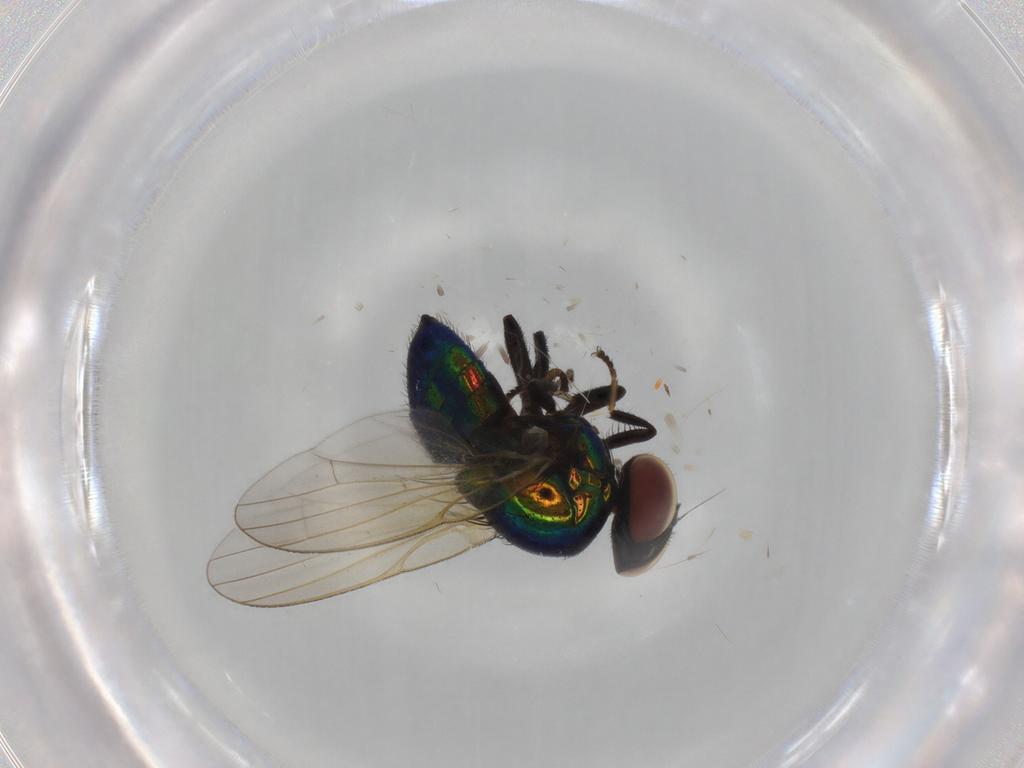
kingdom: Animalia
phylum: Arthropoda
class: Insecta
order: Diptera
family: Lonchaeidae
